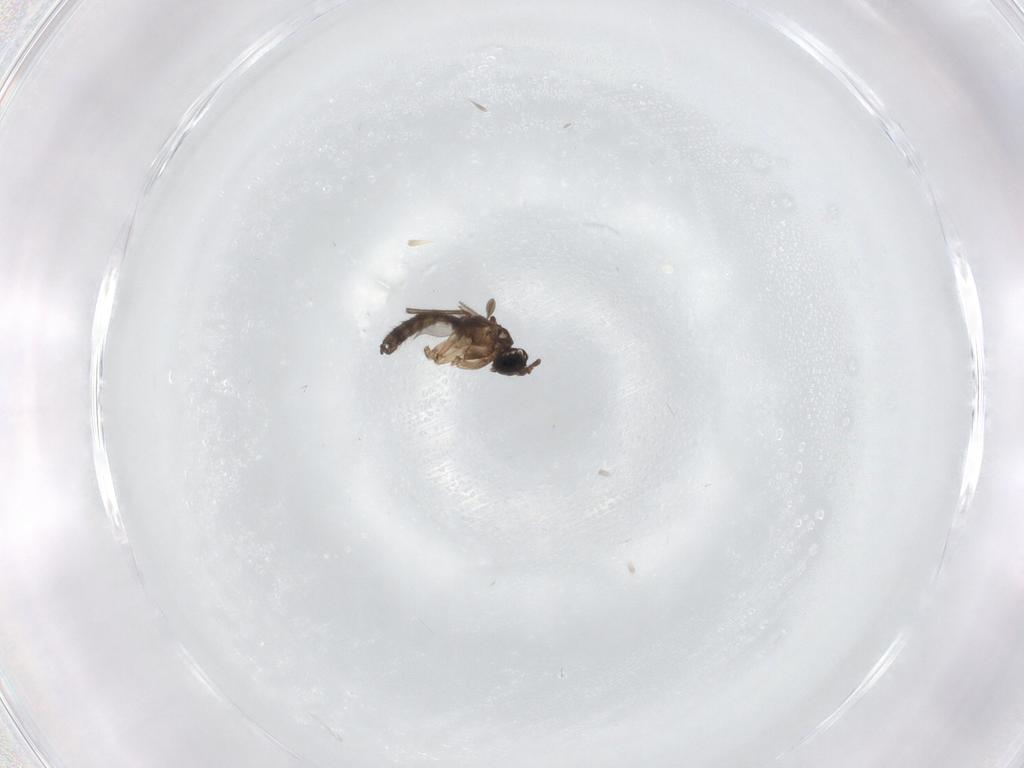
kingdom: Animalia
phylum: Arthropoda
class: Insecta
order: Diptera
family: Sciaridae
